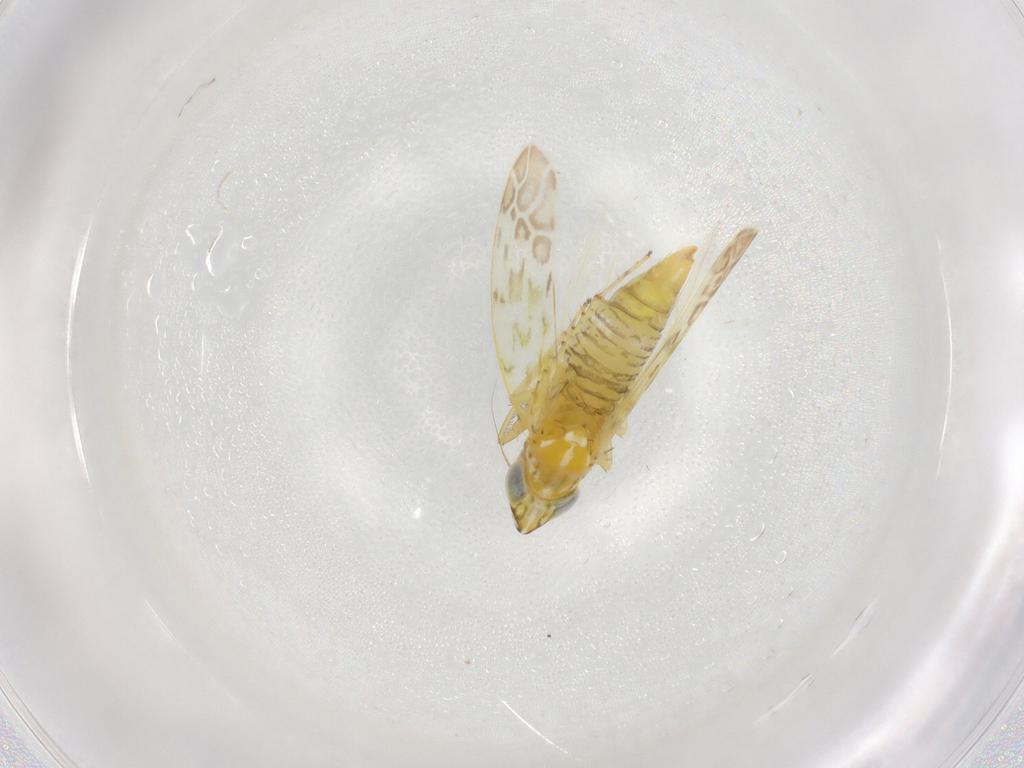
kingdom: Animalia
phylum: Arthropoda
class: Insecta
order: Hemiptera
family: Cicadellidae
